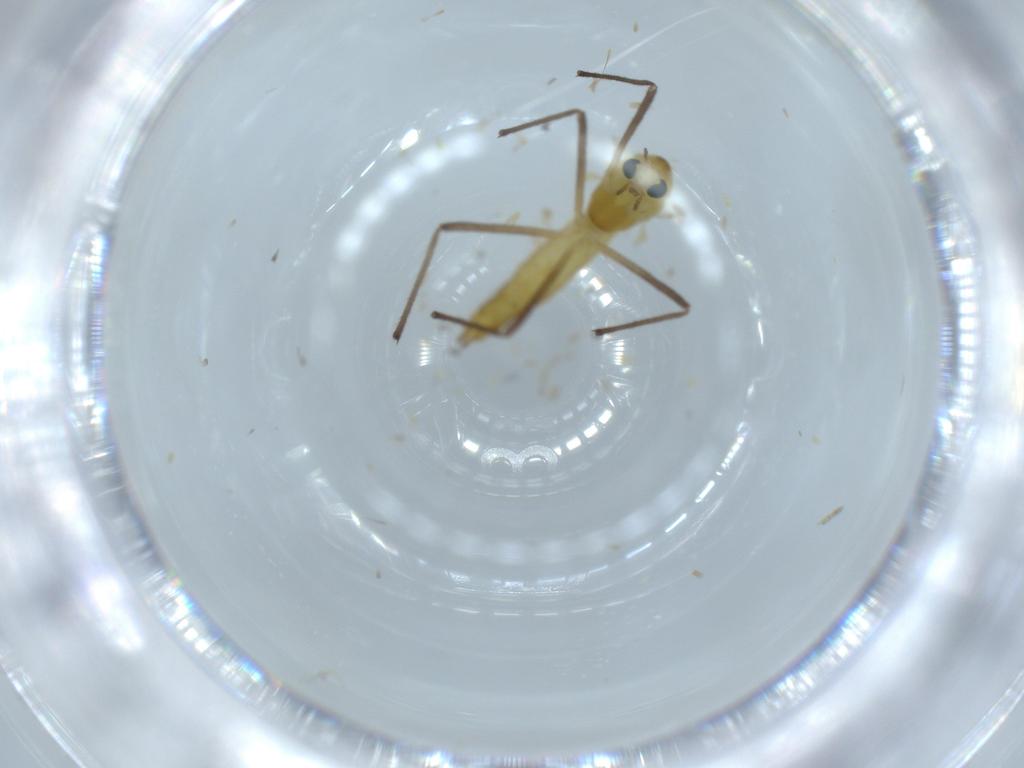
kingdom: Animalia
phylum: Arthropoda
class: Insecta
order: Diptera
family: Chironomidae
